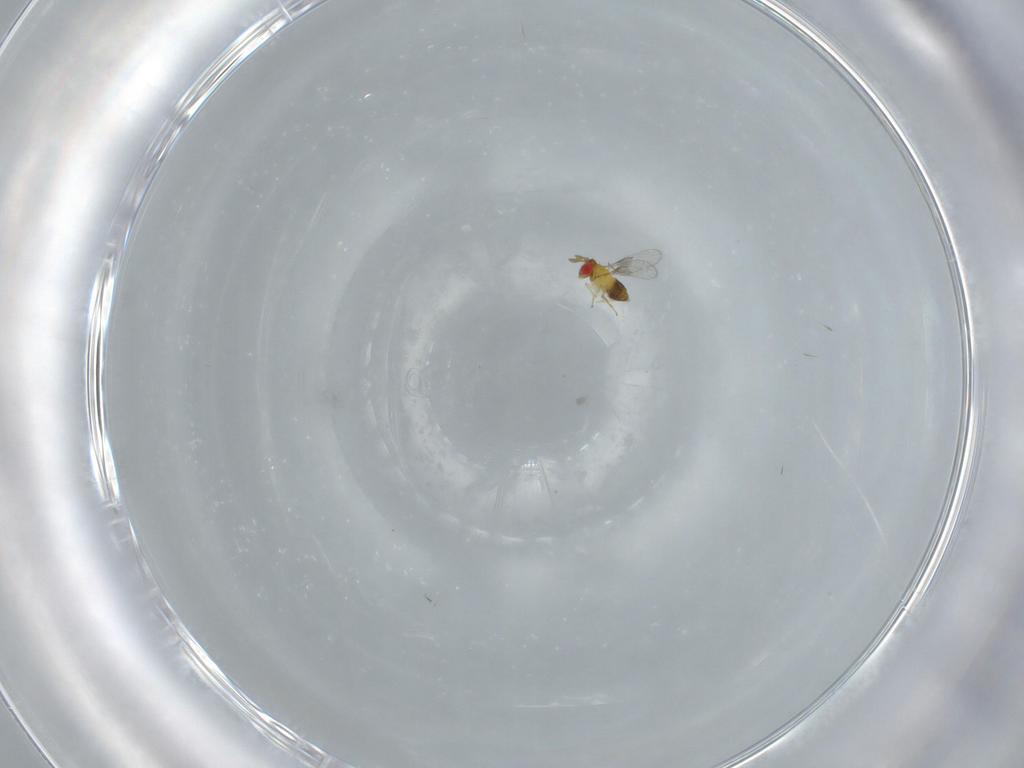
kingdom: Animalia
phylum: Arthropoda
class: Insecta
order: Hymenoptera
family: Trichogrammatidae
